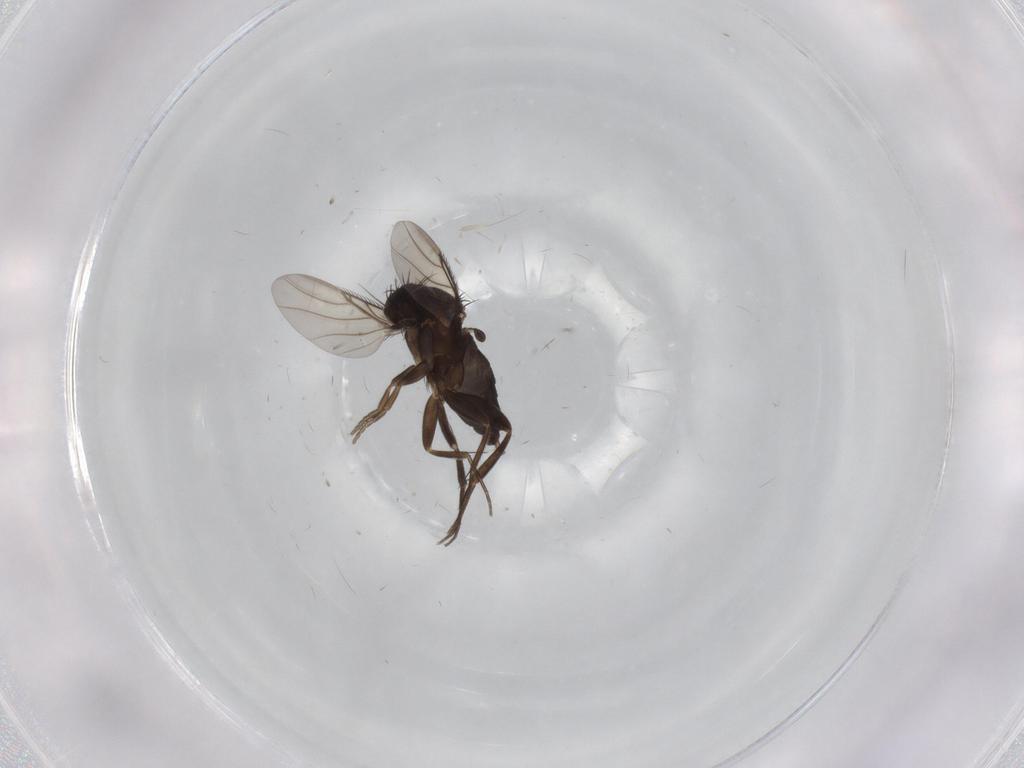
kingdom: Animalia
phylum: Arthropoda
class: Insecta
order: Diptera
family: Phoridae
